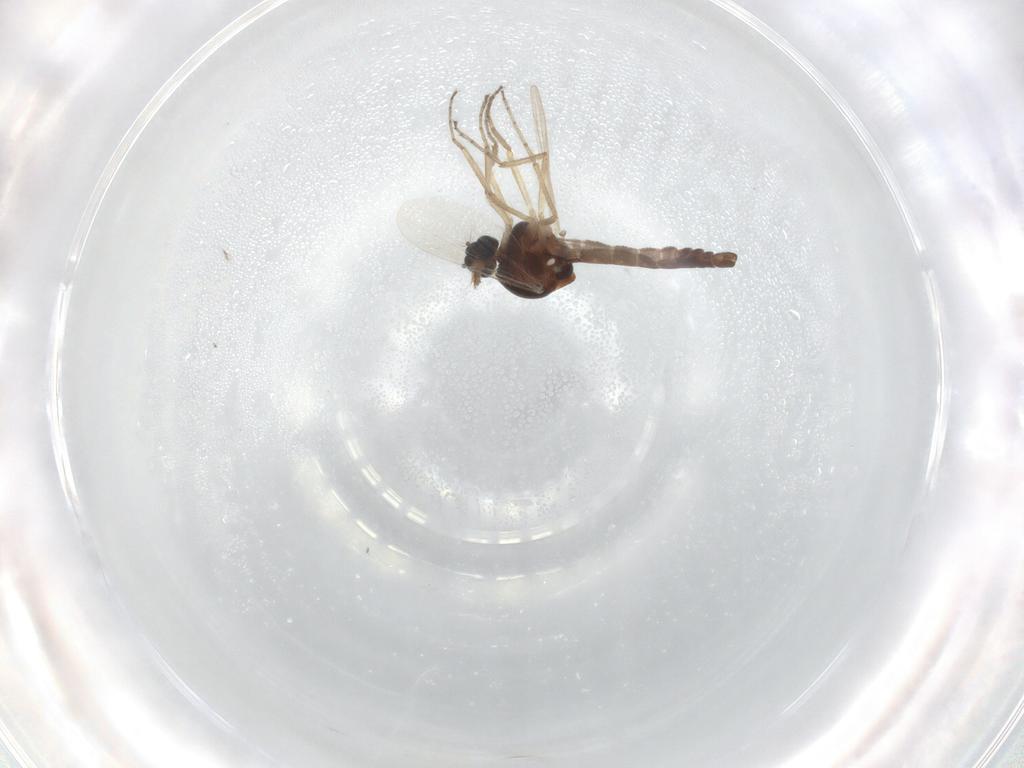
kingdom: Animalia
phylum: Arthropoda
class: Insecta
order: Diptera
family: Ceratopogonidae
